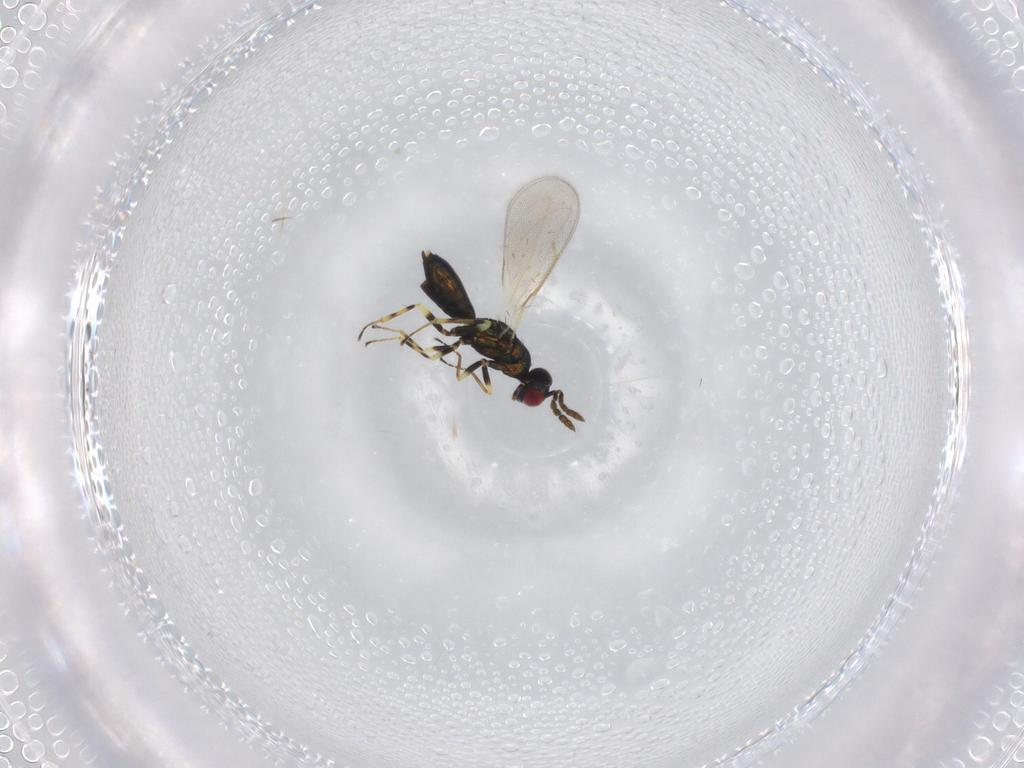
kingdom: Animalia
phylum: Arthropoda
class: Insecta
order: Hymenoptera
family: Eulophidae
